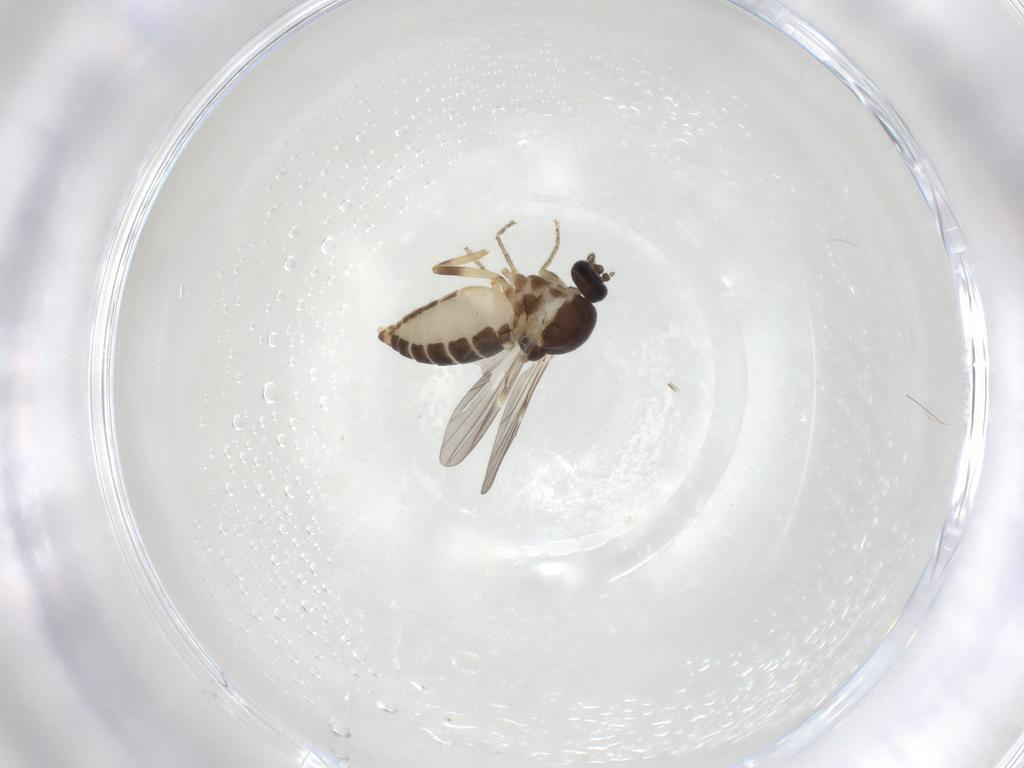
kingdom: Animalia
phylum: Arthropoda
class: Insecta
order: Diptera
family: Ceratopogonidae
